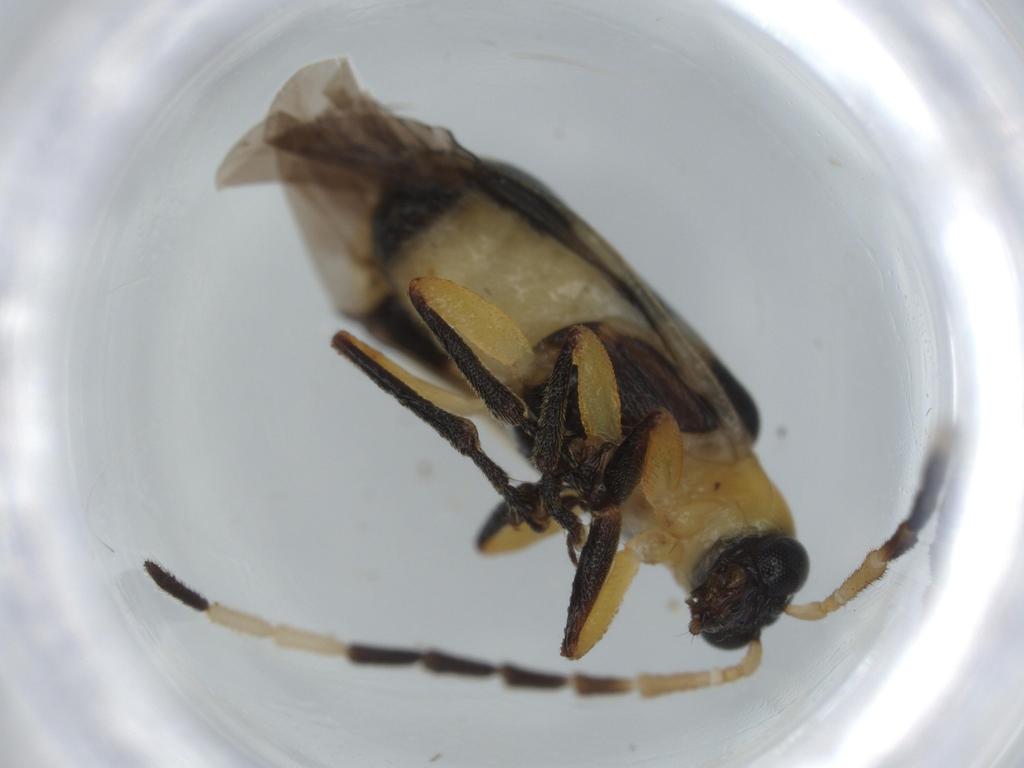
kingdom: Animalia
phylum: Arthropoda
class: Insecta
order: Coleoptera
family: Chrysomelidae
